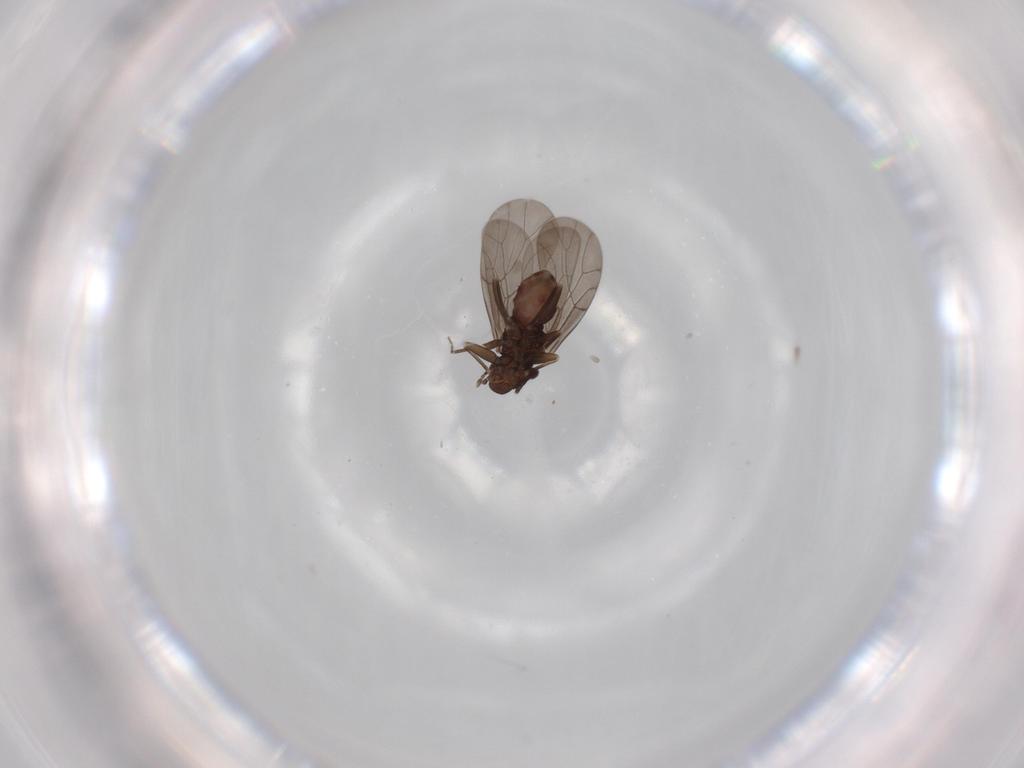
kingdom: Animalia
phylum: Arthropoda
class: Insecta
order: Psocodea
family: Epipsocidae
